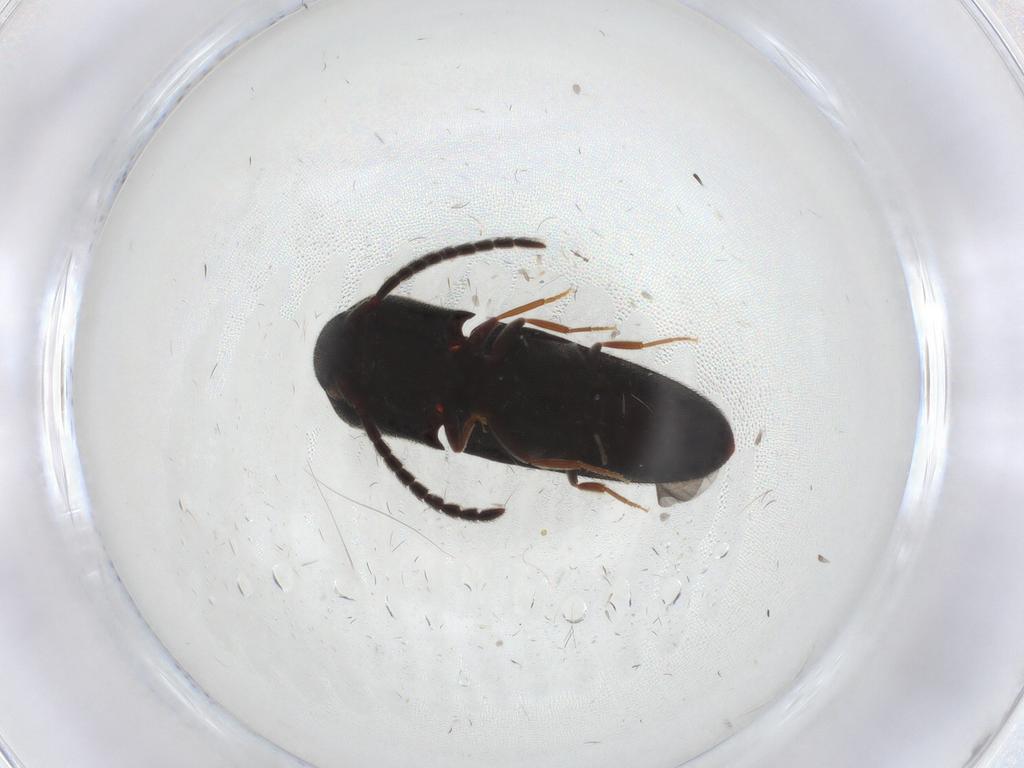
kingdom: Animalia
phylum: Arthropoda
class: Insecta
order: Coleoptera
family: Eucnemidae
